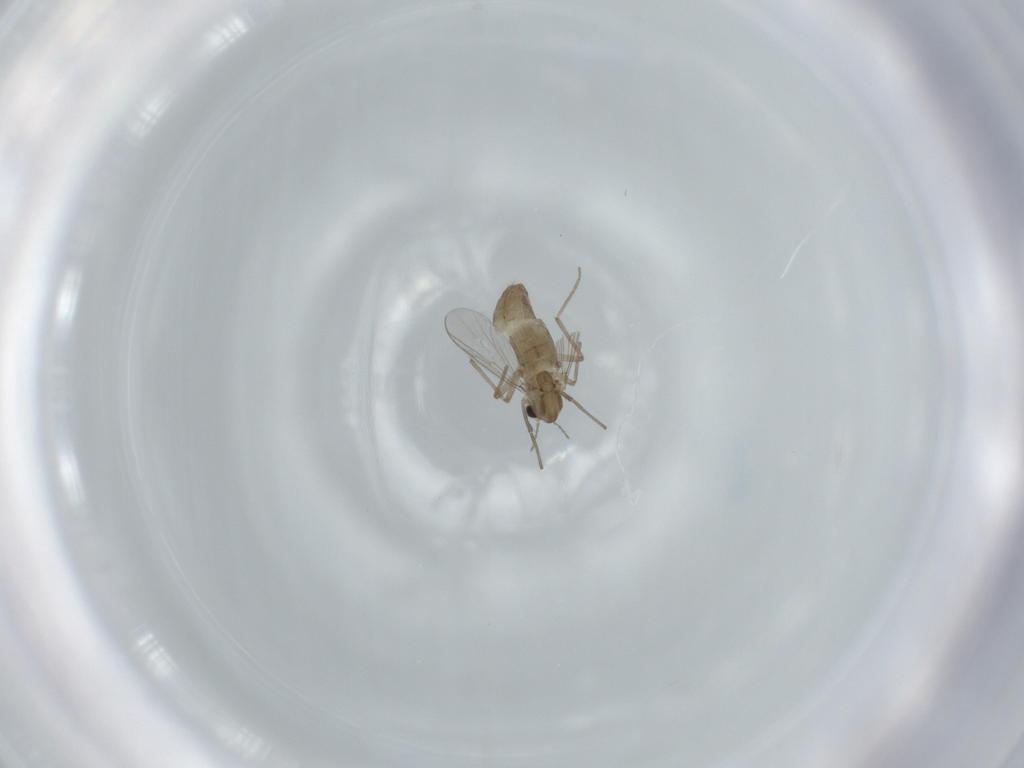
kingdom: Animalia
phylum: Arthropoda
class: Insecta
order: Diptera
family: Chironomidae
